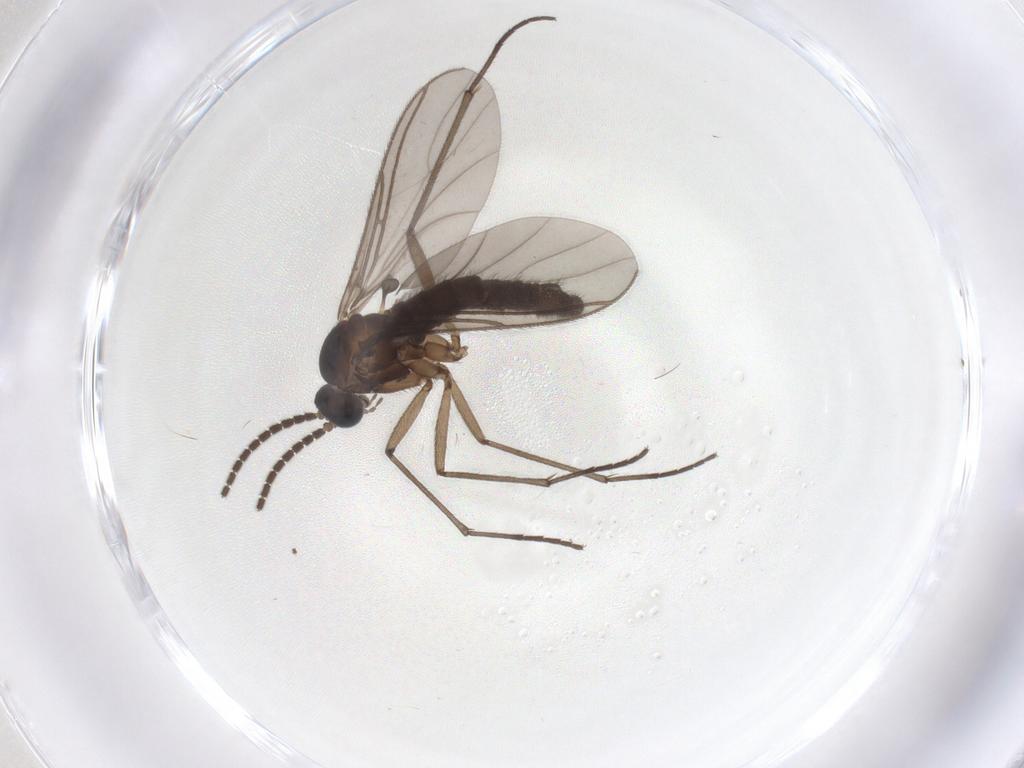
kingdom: Animalia
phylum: Arthropoda
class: Insecta
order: Diptera
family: Sciaridae
